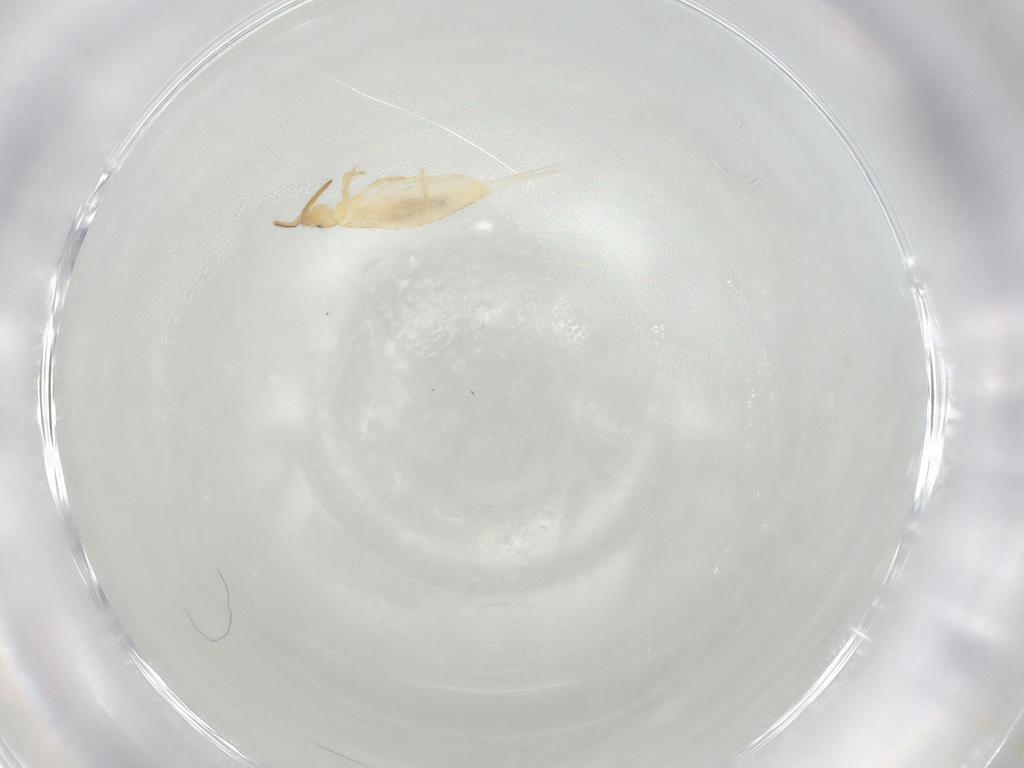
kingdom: Animalia
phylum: Arthropoda
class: Collembola
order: Entomobryomorpha
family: Entomobryidae
